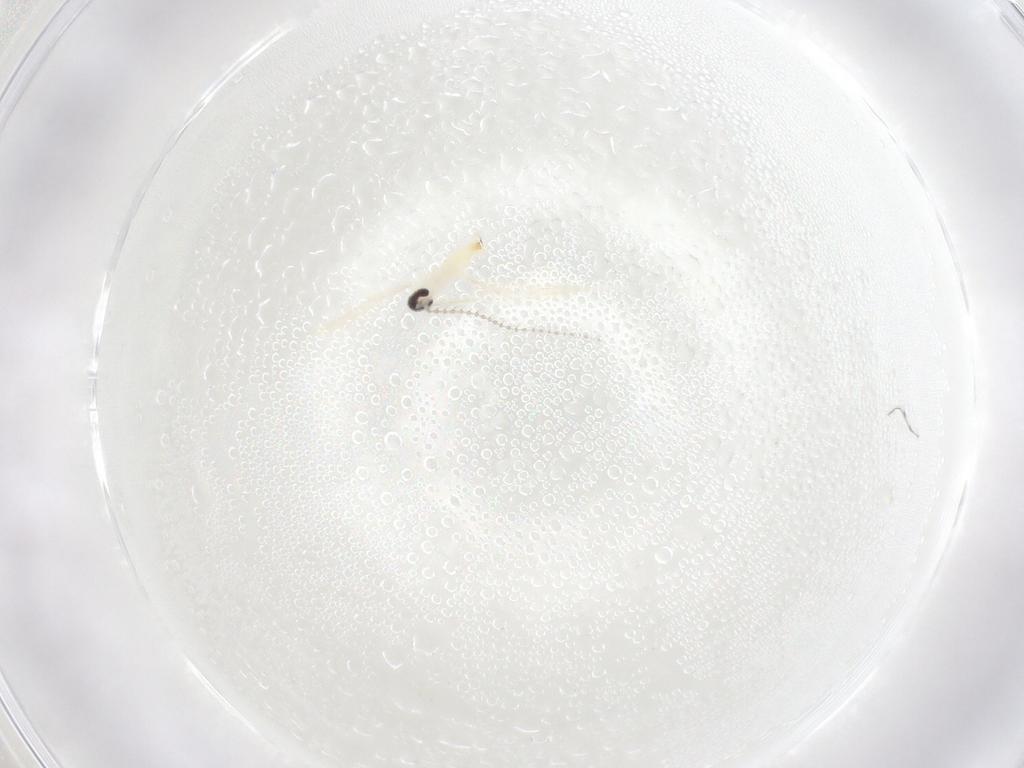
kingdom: Animalia
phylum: Arthropoda
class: Insecta
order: Diptera
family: Cecidomyiidae
